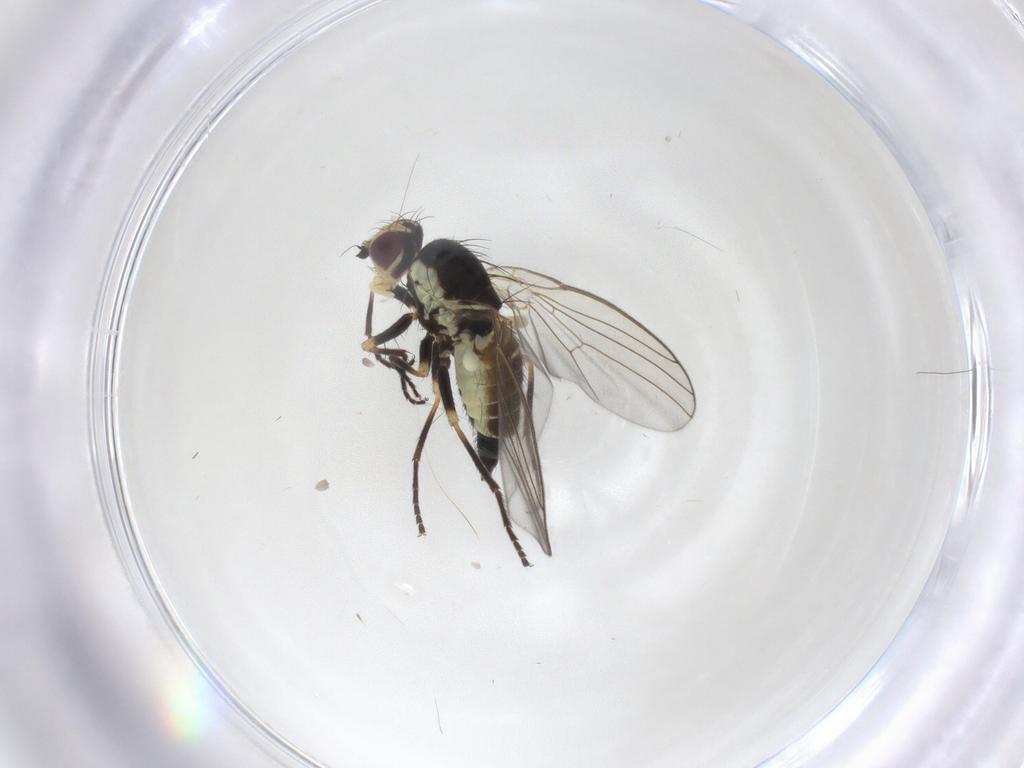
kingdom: Animalia
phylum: Arthropoda
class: Insecta
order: Diptera
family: Agromyzidae
